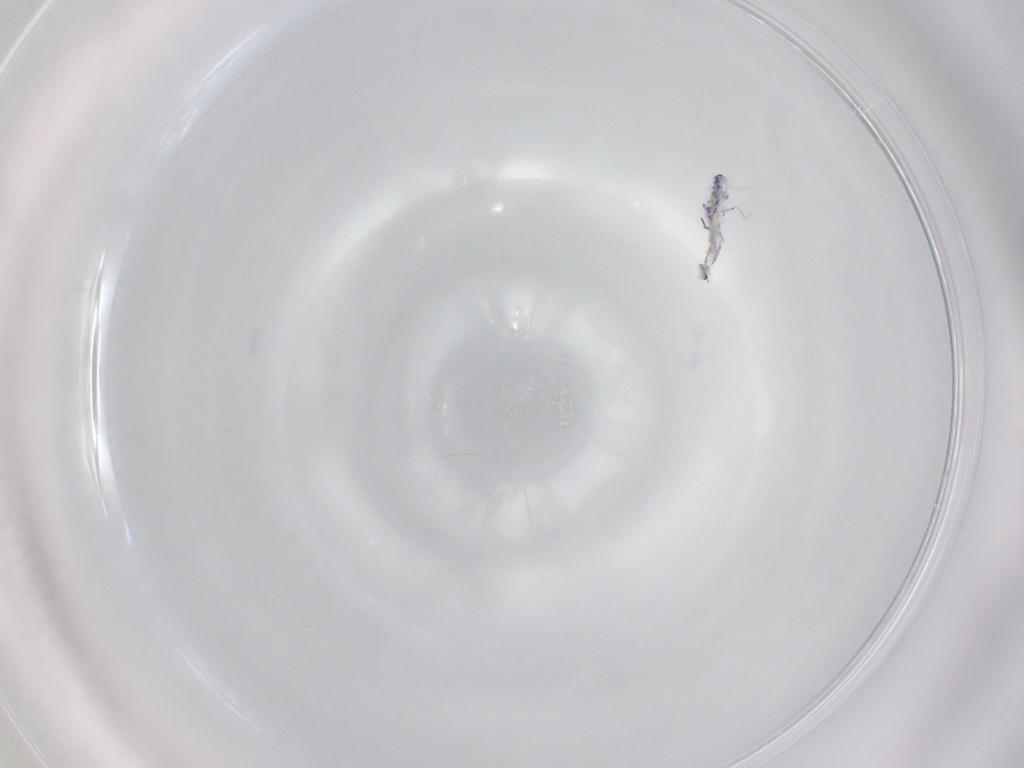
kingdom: Animalia
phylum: Arthropoda
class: Collembola
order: Entomobryomorpha
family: Entomobryidae
